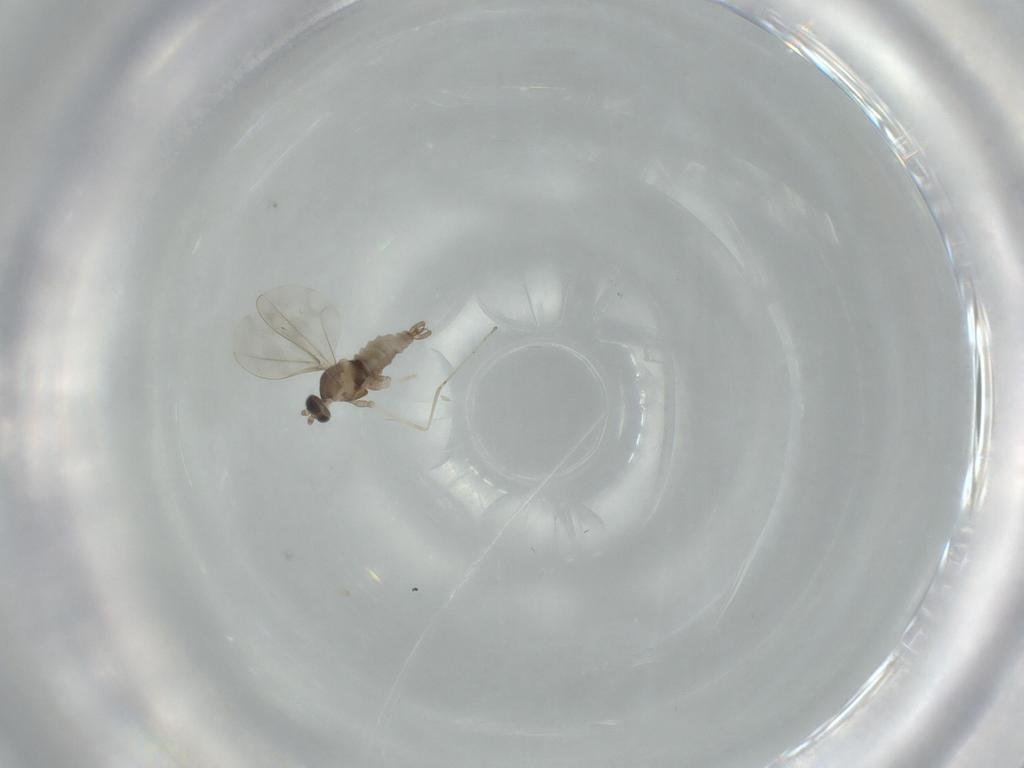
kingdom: Animalia
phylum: Arthropoda
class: Insecta
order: Diptera
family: Cecidomyiidae
